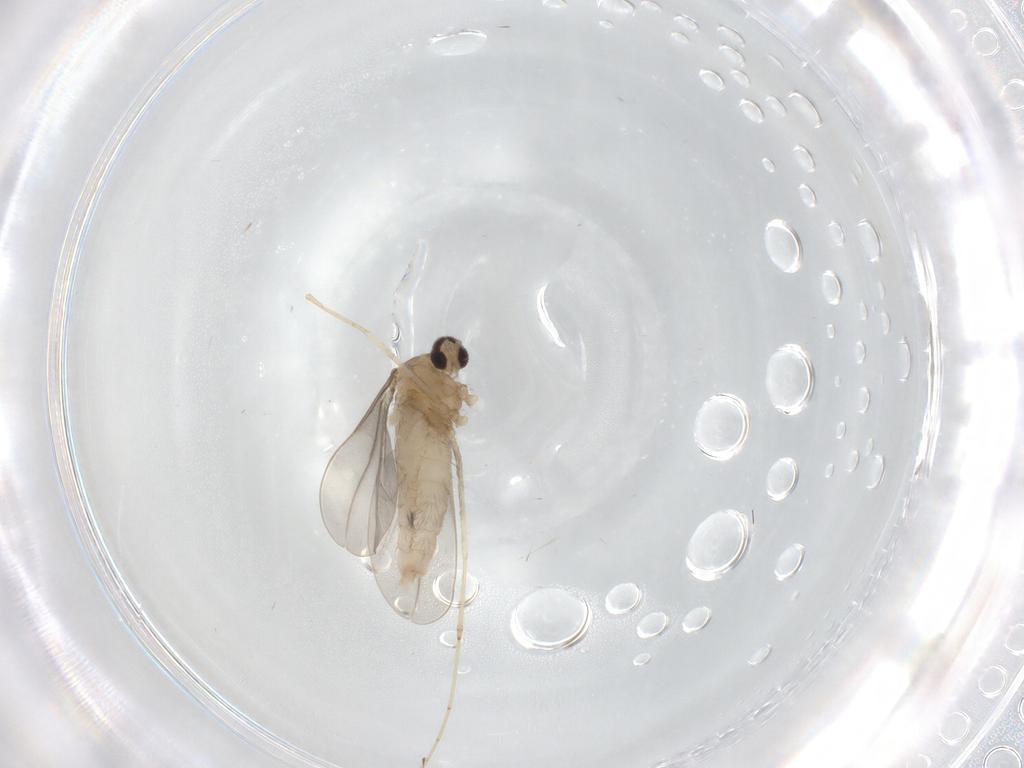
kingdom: Animalia
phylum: Arthropoda
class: Insecta
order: Diptera
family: Cecidomyiidae
